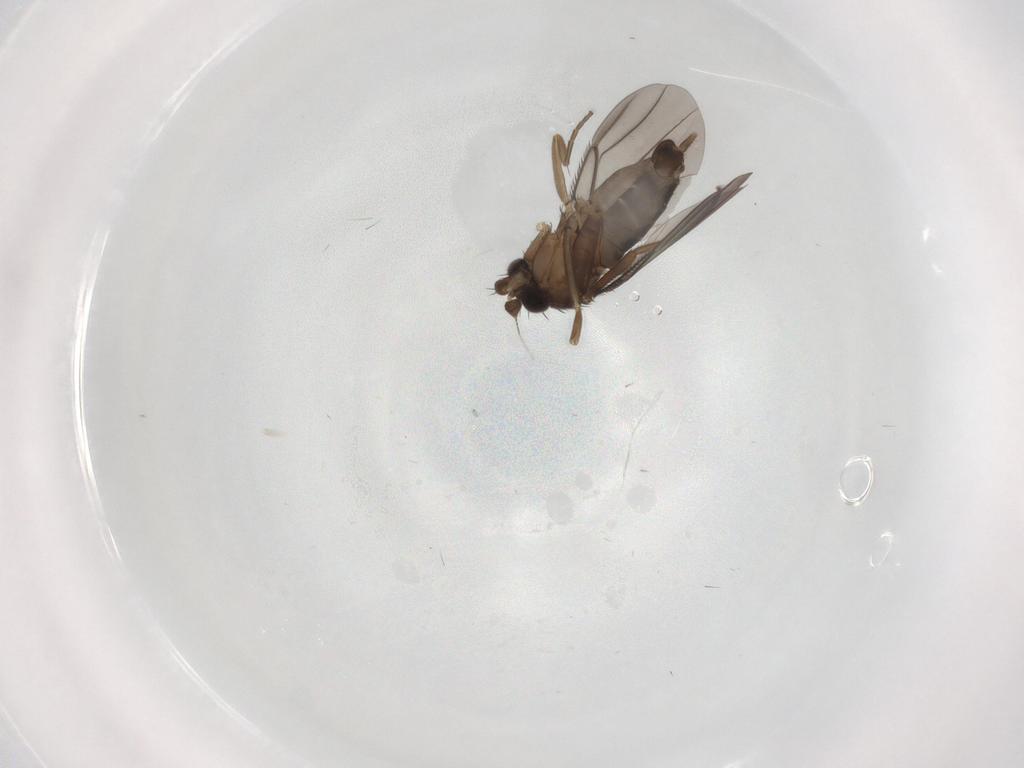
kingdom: Animalia
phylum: Arthropoda
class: Insecta
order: Diptera
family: Phoridae
